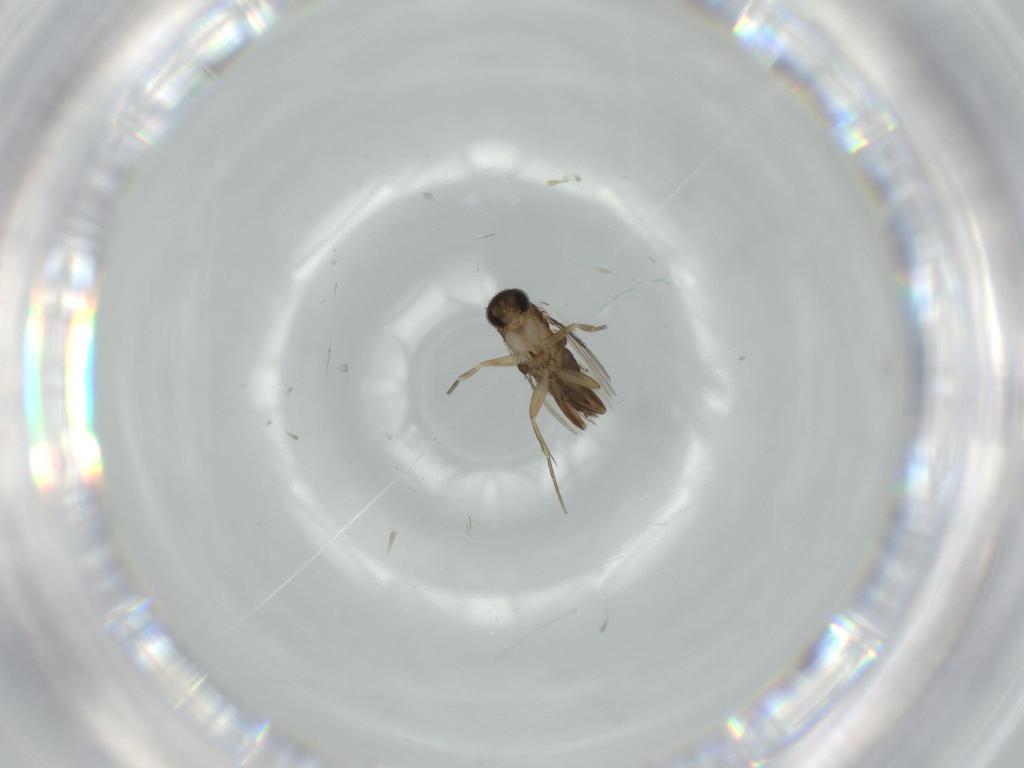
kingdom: Animalia
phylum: Arthropoda
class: Insecta
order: Diptera
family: Phoridae
